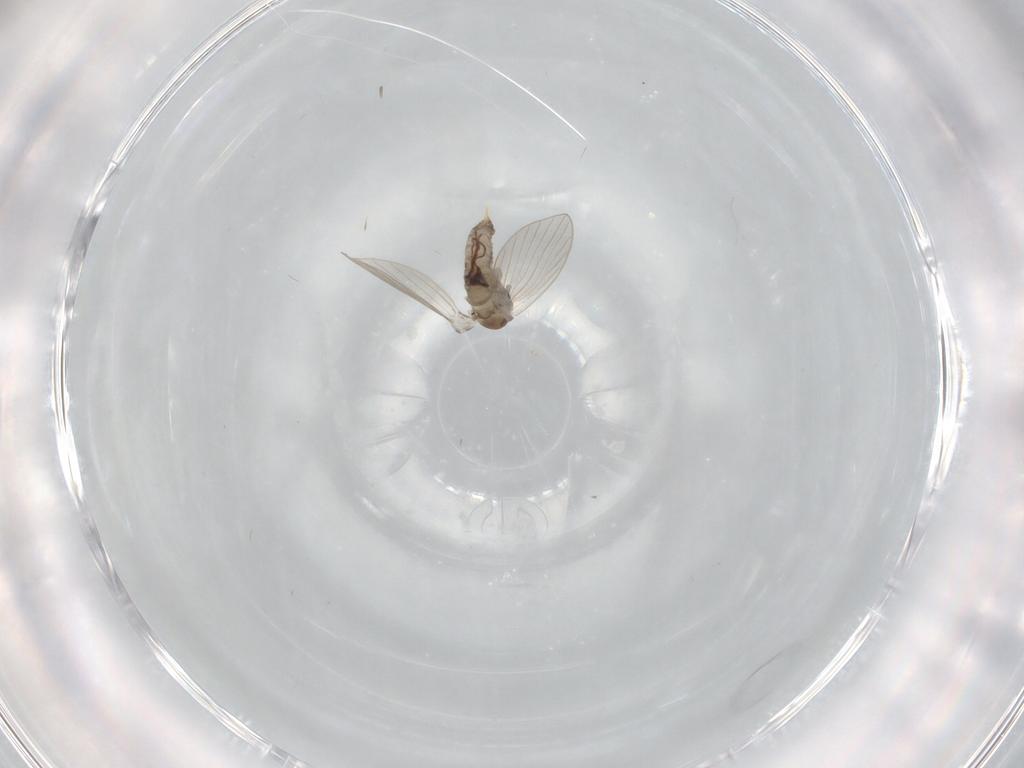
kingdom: Animalia
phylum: Arthropoda
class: Insecta
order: Diptera
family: Psychodidae
